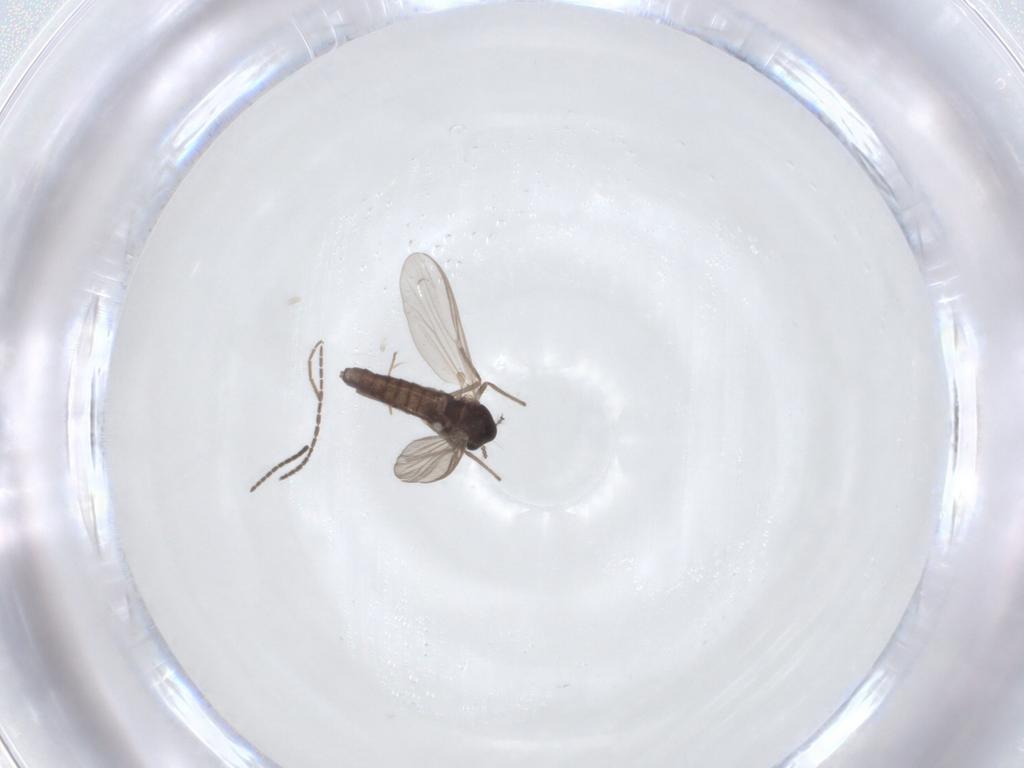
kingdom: Animalia
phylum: Arthropoda
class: Insecta
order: Diptera
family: Chironomidae
